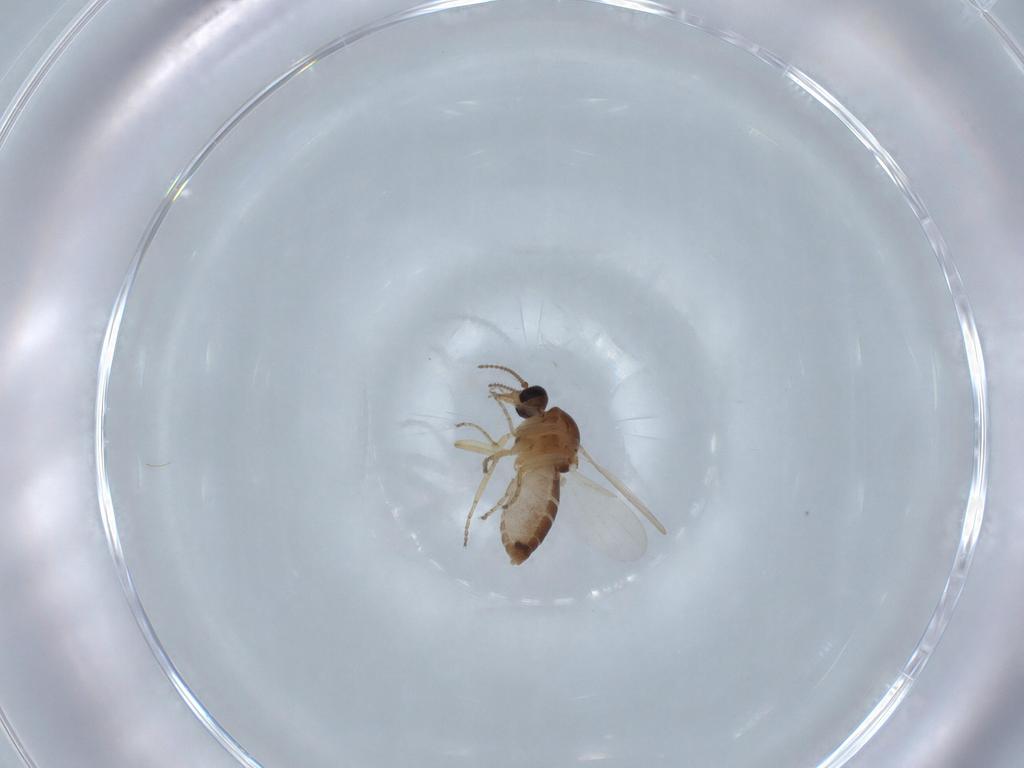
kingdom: Animalia
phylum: Arthropoda
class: Insecta
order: Diptera
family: Ceratopogonidae
